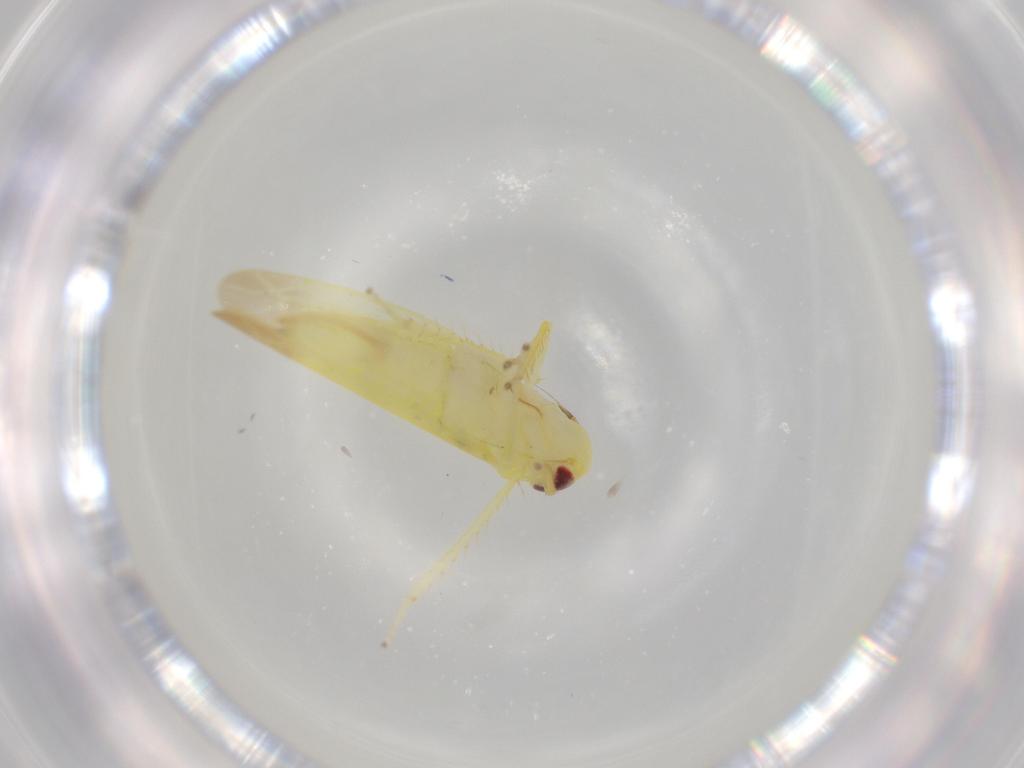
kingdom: Animalia
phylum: Arthropoda
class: Insecta
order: Hemiptera
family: Cicadellidae
